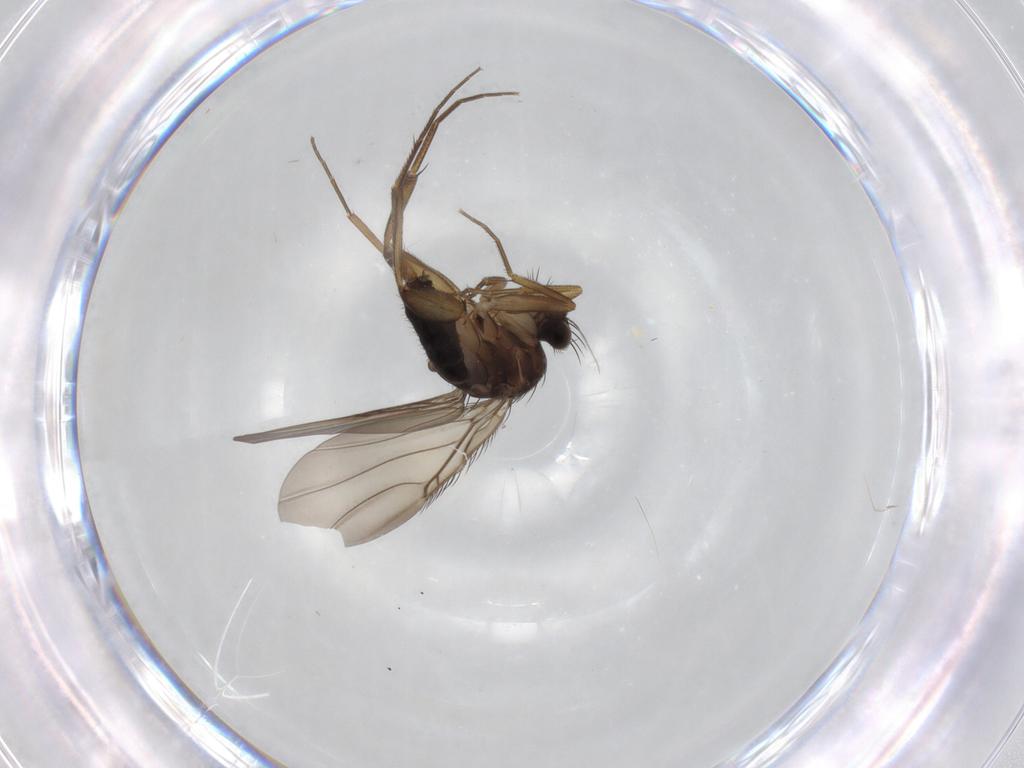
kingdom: Animalia
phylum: Arthropoda
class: Insecta
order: Diptera
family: Phoridae
